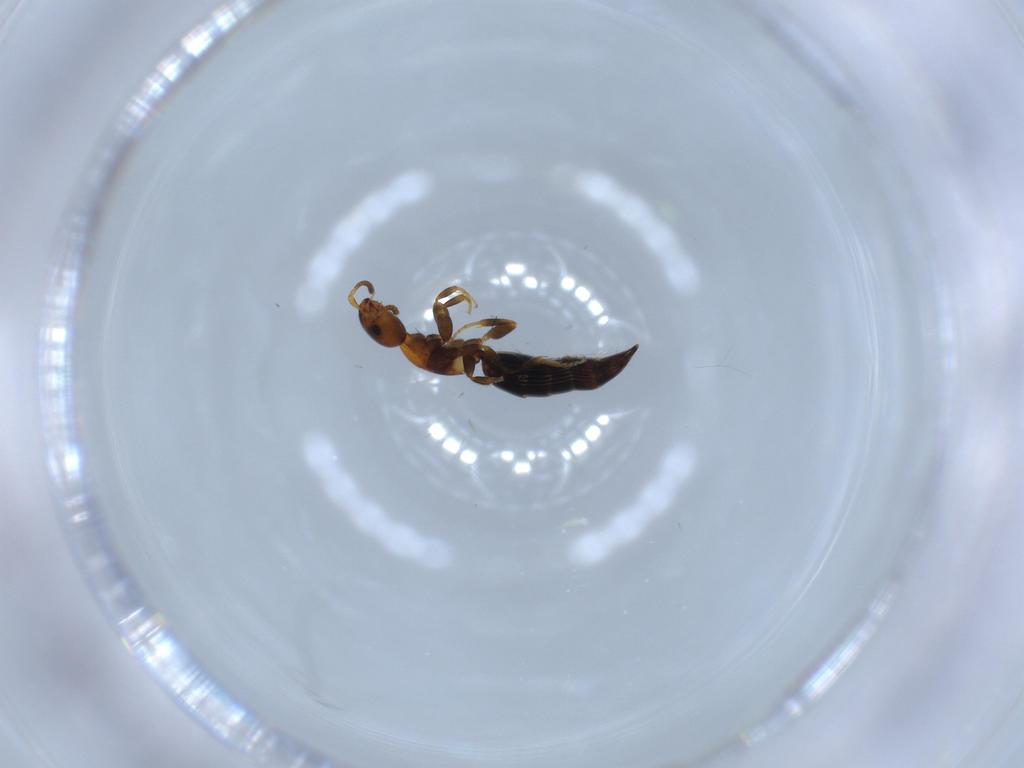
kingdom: Animalia
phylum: Arthropoda
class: Insecta
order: Hymenoptera
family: Bethylidae
